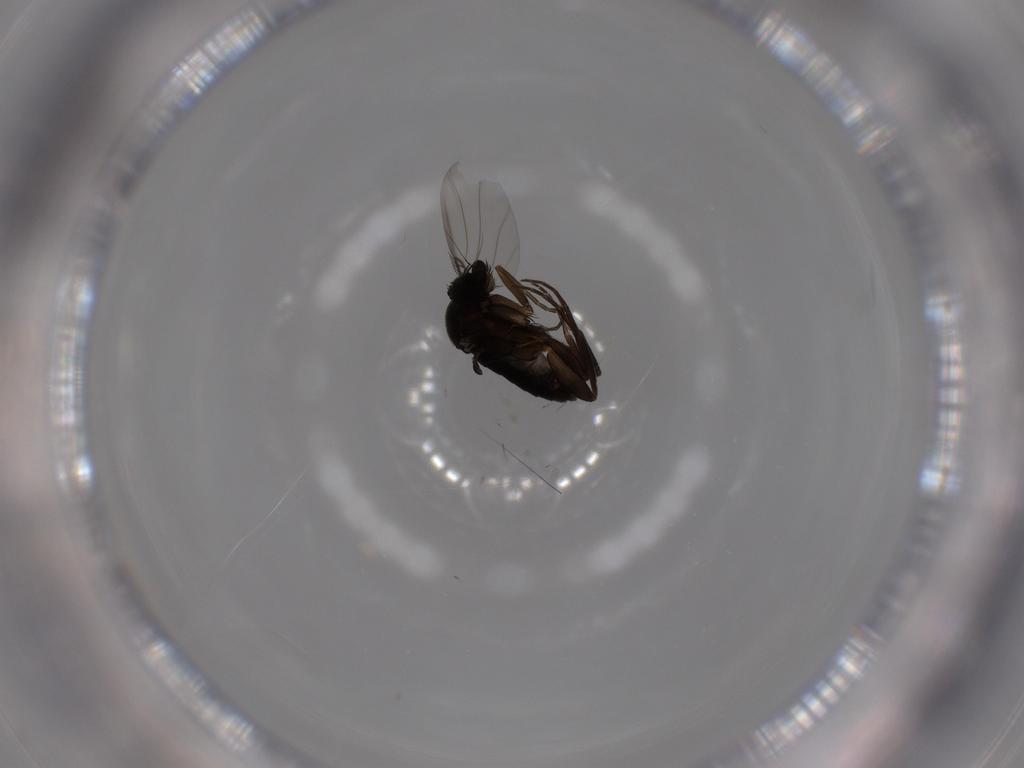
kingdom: Animalia
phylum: Arthropoda
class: Insecta
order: Diptera
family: Phoridae
